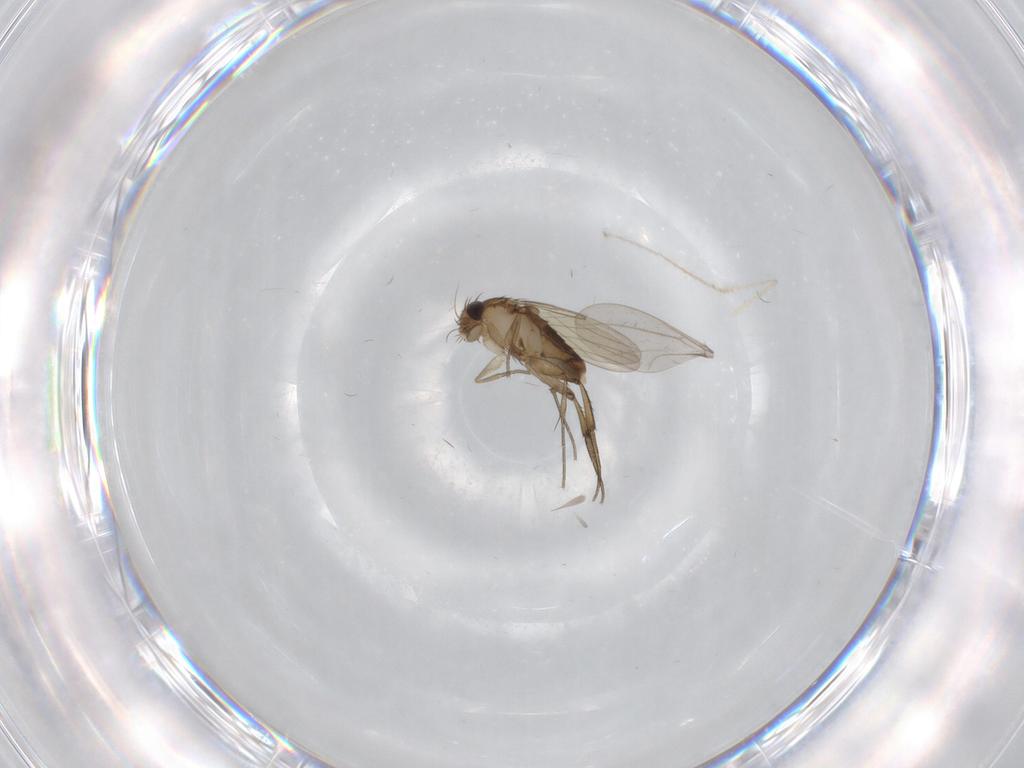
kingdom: Animalia
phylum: Arthropoda
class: Insecta
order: Diptera
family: Phoridae
